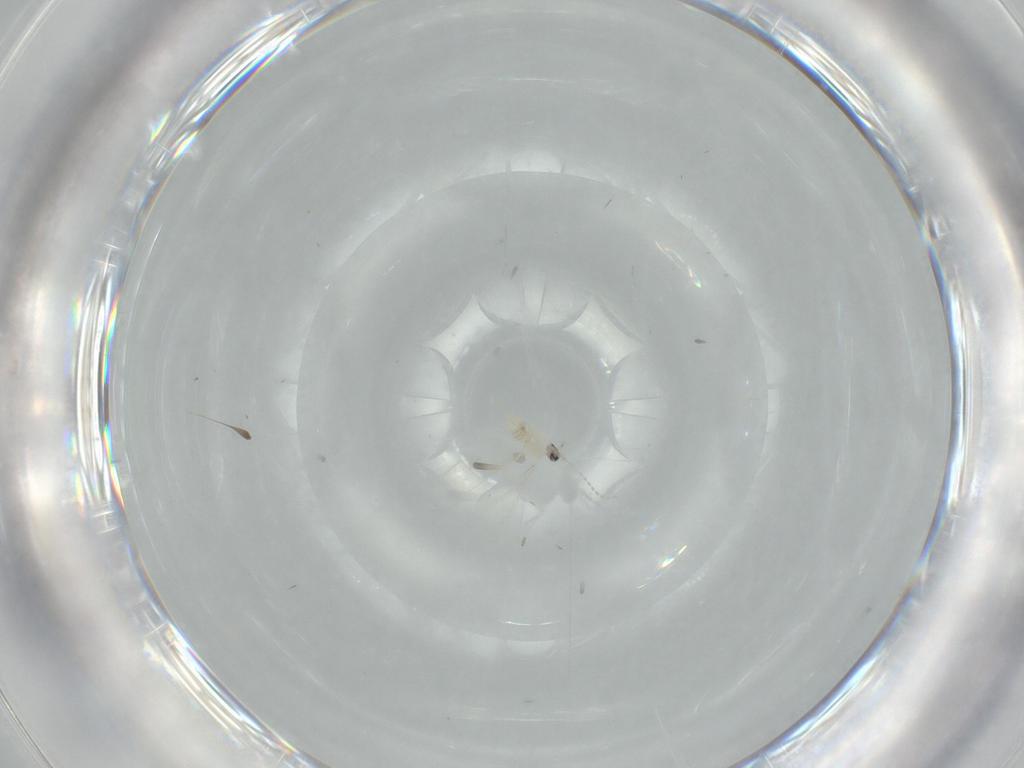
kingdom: Animalia
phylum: Arthropoda
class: Insecta
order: Diptera
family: Cecidomyiidae
